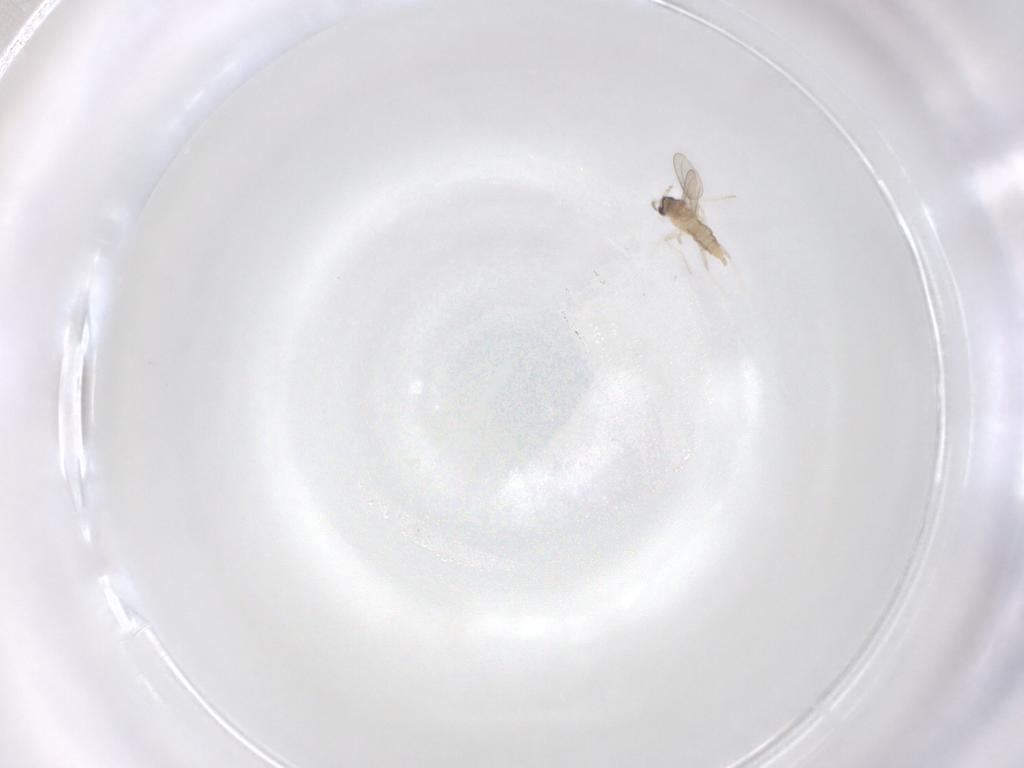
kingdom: Animalia
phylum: Arthropoda
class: Insecta
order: Diptera
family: Cecidomyiidae
